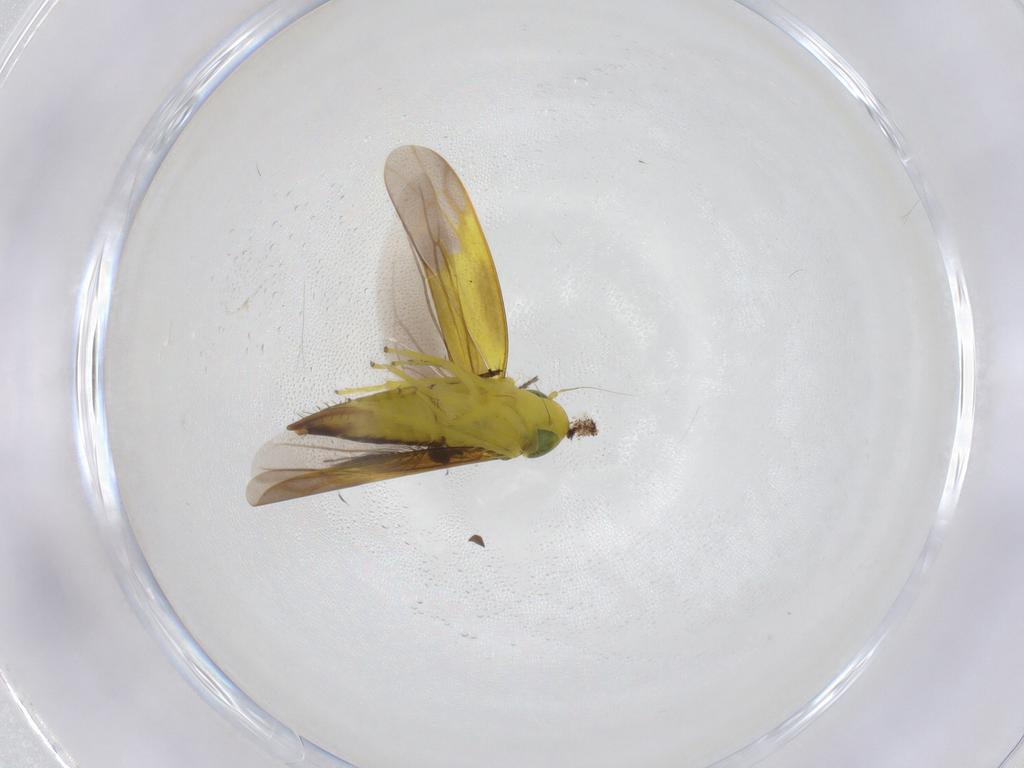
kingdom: Animalia
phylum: Arthropoda
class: Insecta
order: Hemiptera
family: Cicadellidae
